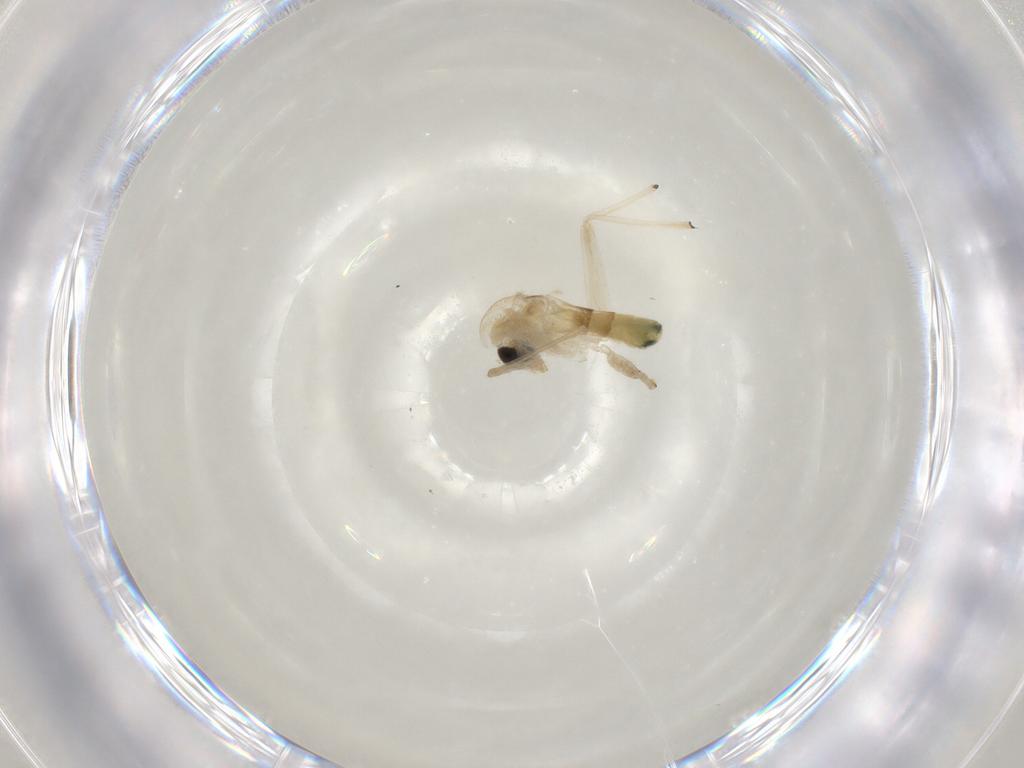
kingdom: Animalia
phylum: Arthropoda
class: Insecta
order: Diptera
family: Chironomidae
